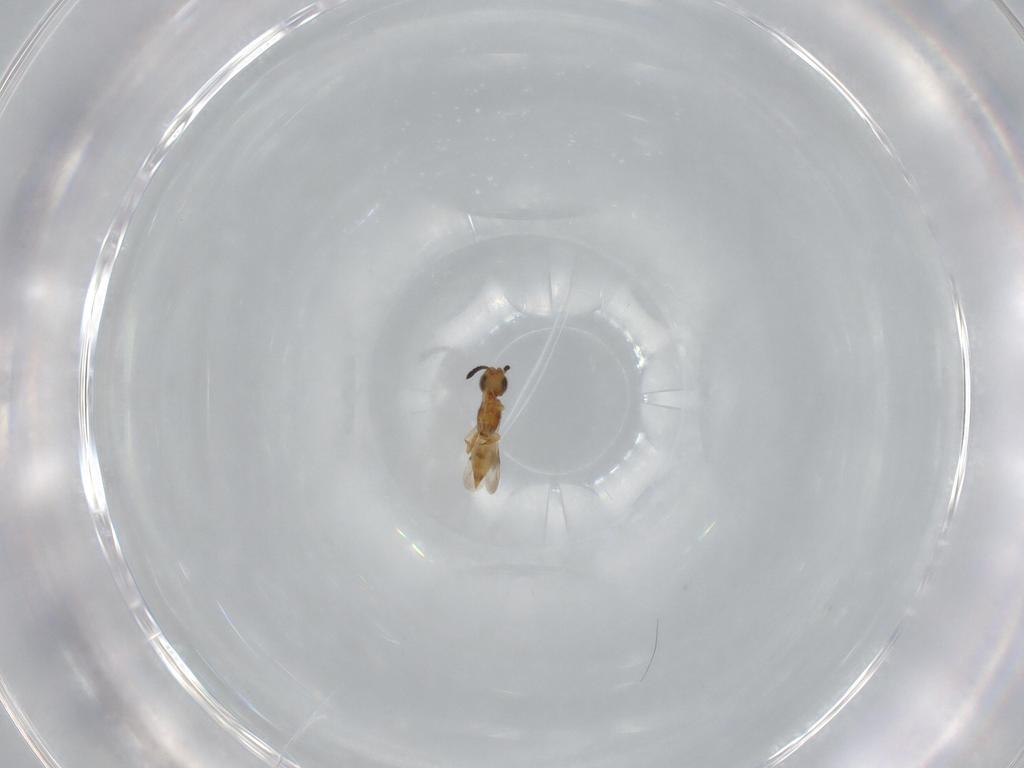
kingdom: Animalia
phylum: Arthropoda
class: Insecta
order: Hymenoptera
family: Ceraphronidae
